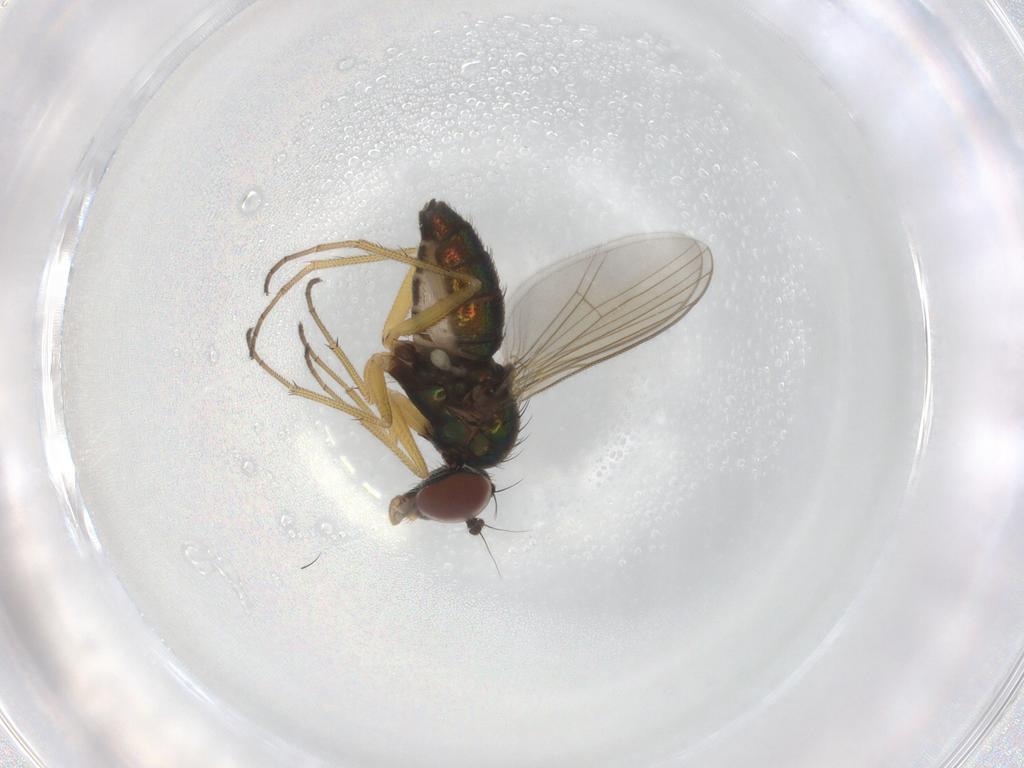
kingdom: Animalia
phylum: Arthropoda
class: Insecta
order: Diptera
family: Dolichopodidae
